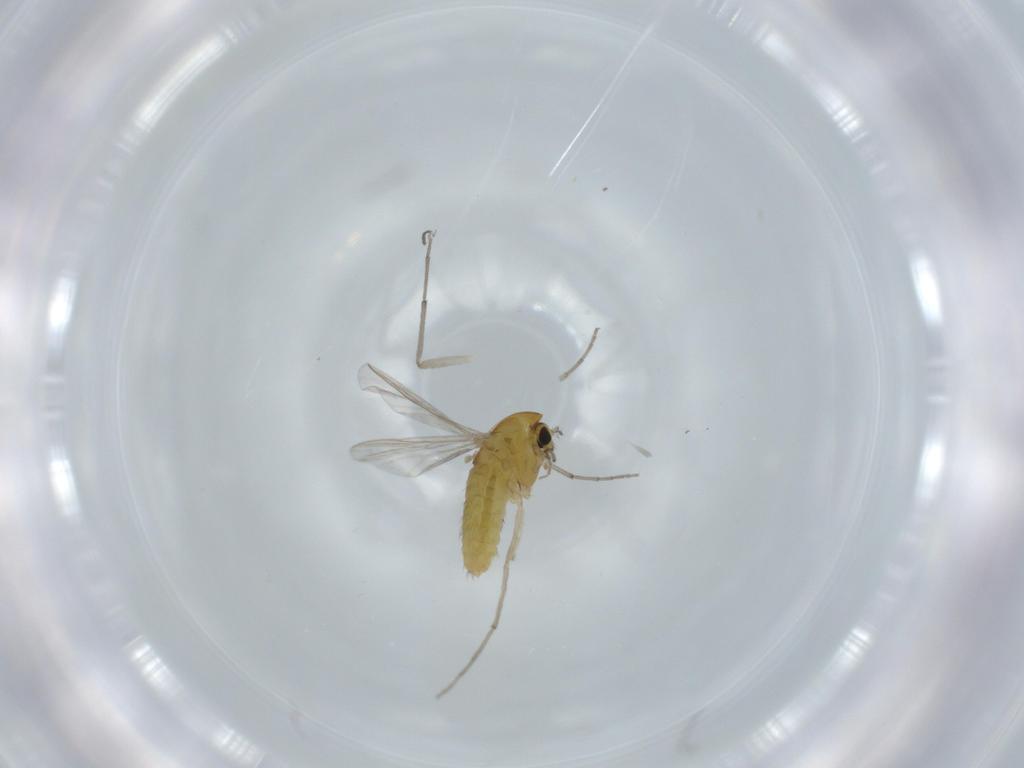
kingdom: Animalia
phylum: Arthropoda
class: Insecta
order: Diptera
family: Chironomidae
